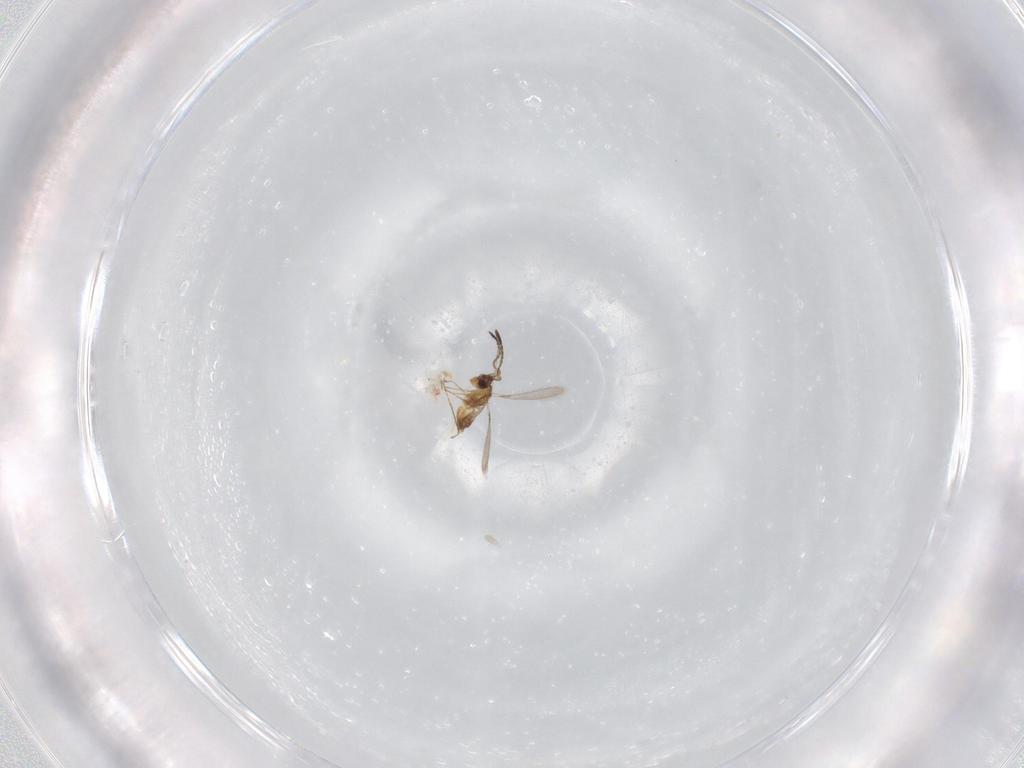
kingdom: Animalia
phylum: Arthropoda
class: Insecta
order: Hymenoptera
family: Mymaridae
